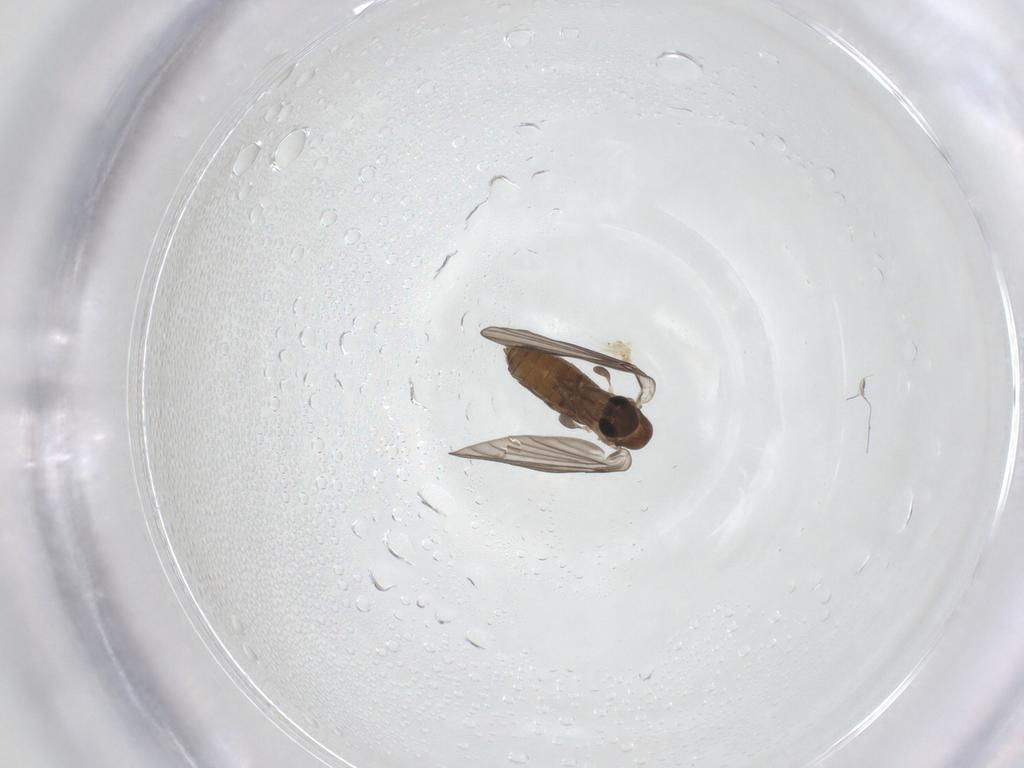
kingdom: Animalia
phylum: Arthropoda
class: Insecta
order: Diptera
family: Psychodidae
